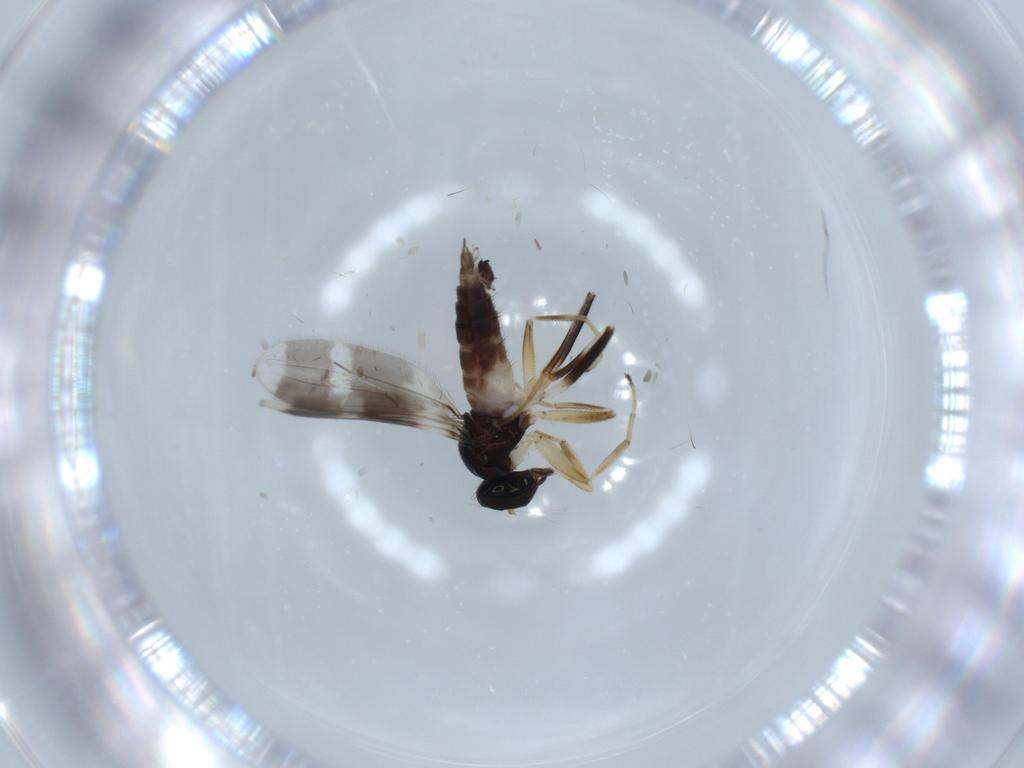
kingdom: Animalia
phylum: Arthropoda
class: Insecta
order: Diptera
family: Hybotidae
